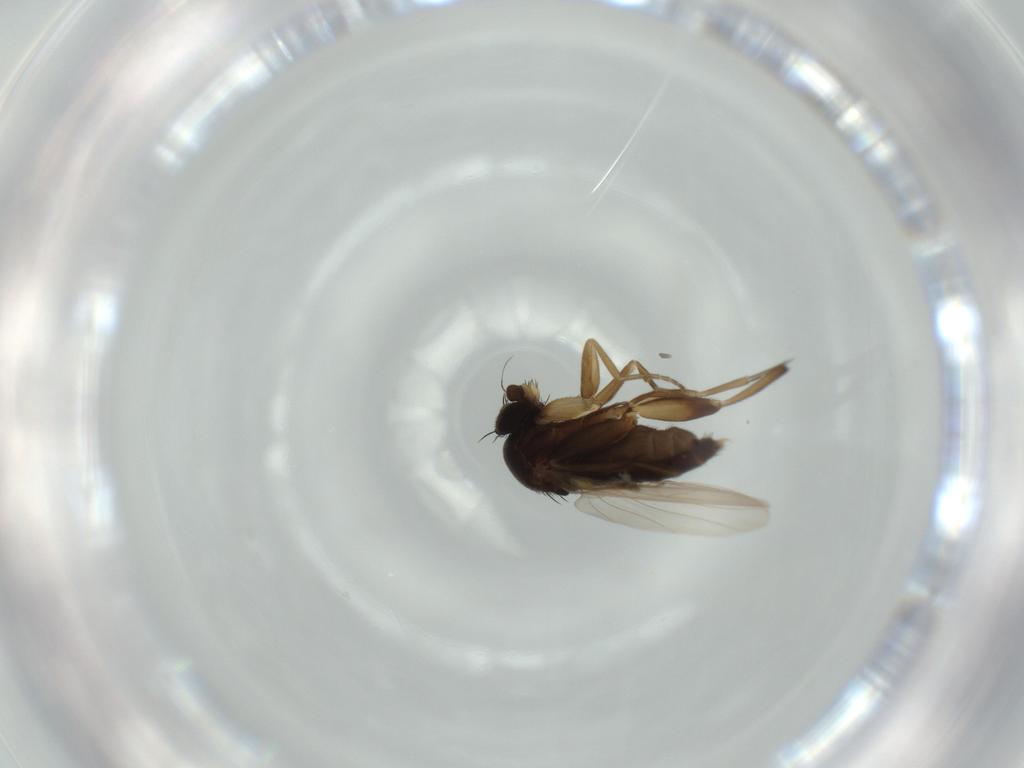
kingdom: Animalia
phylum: Arthropoda
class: Insecta
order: Diptera
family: Phoridae
